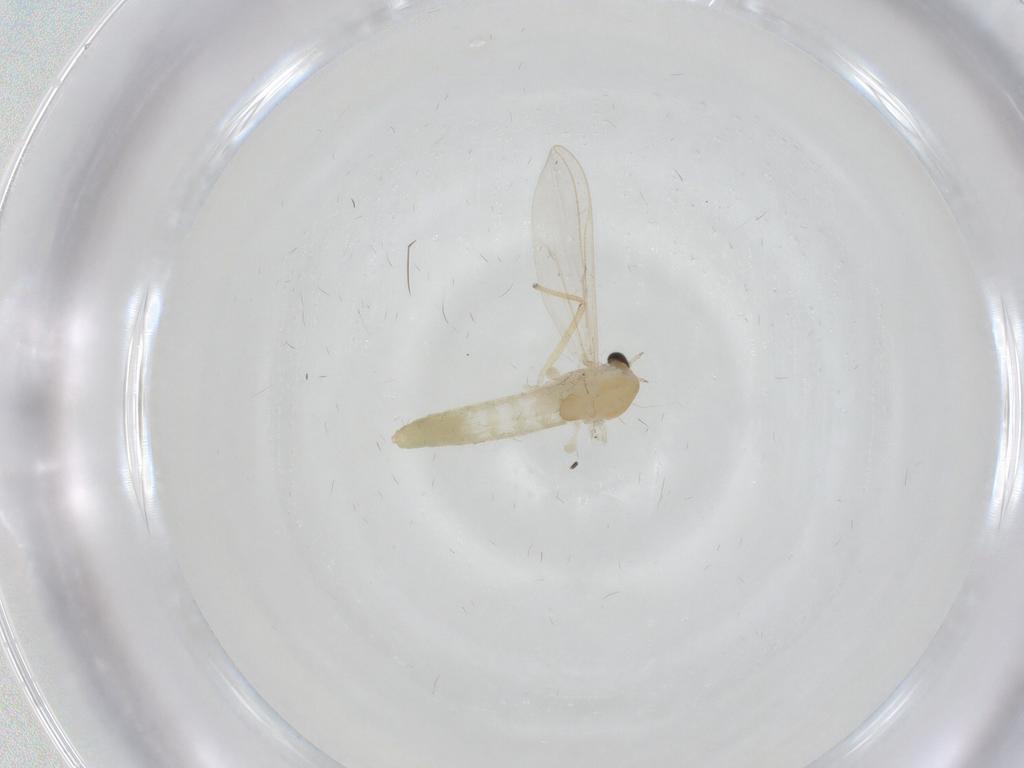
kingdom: Animalia
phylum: Arthropoda
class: Insecta
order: Diptera
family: Chironomidae
